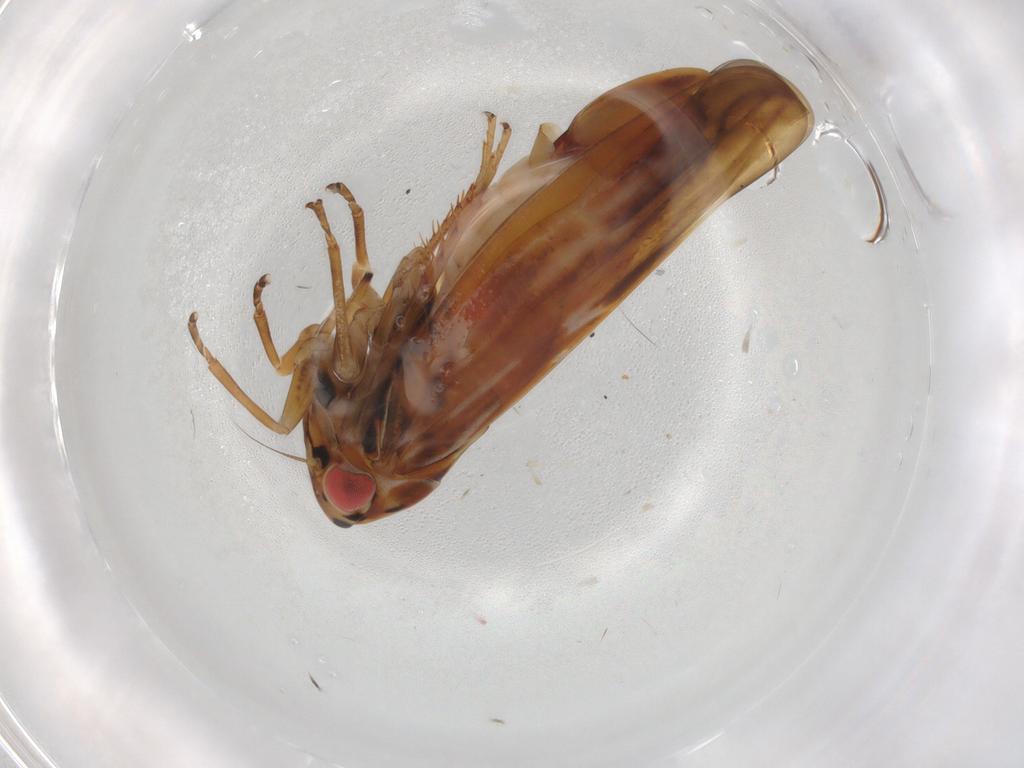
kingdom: Animalia
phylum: Arthropoda
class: Insecta
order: Hemiptera
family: Cicadellidae
